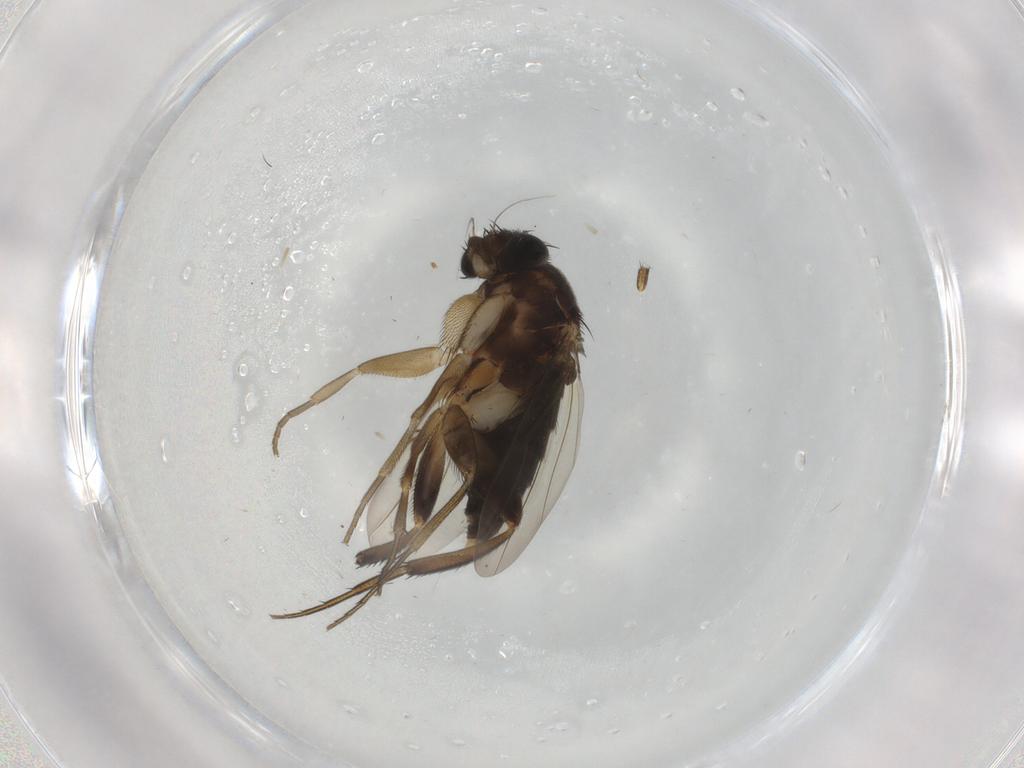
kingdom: Animalia
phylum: Arthropoda
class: Insecta
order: Diptera
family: Phoridae
